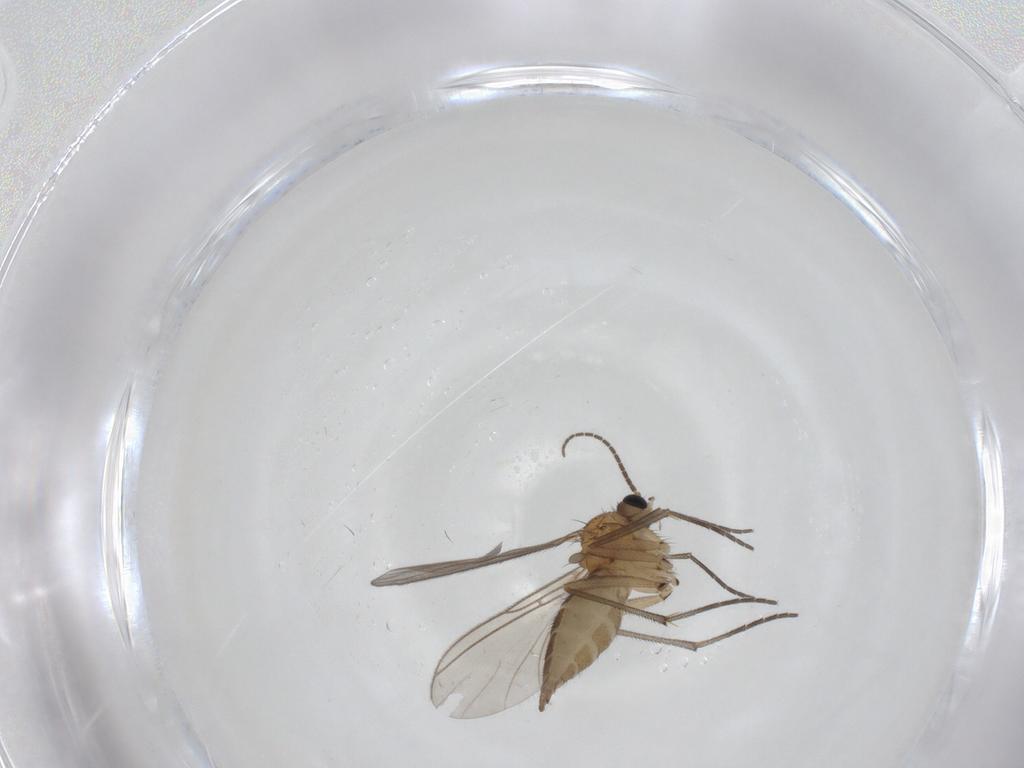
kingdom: Animalia
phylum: Arthropoda
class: Insecta
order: Diptera
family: Sciaridae
